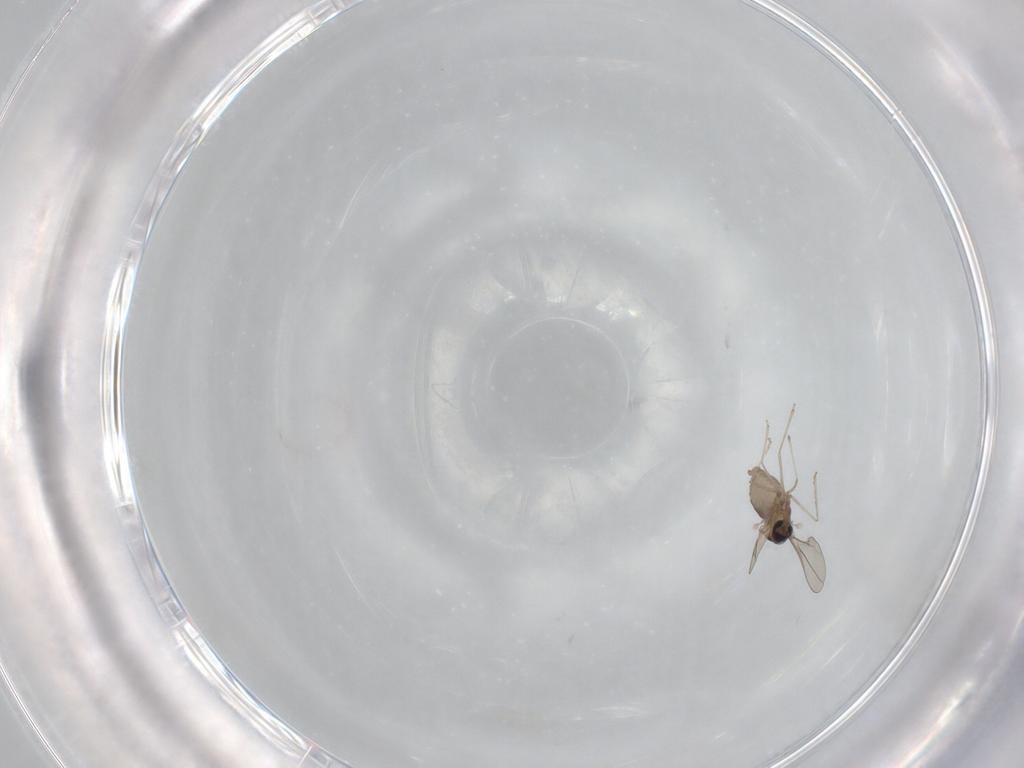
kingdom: Animalia
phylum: Arthropoda
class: Insecta
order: Diptera
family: Cecidomyiidae
